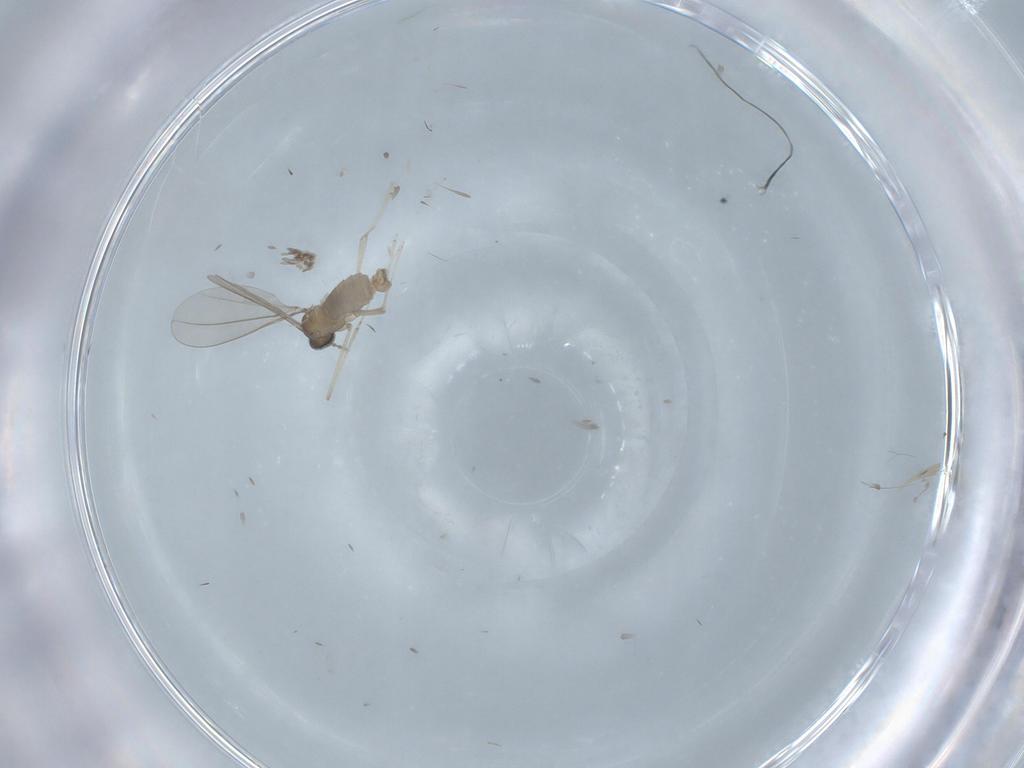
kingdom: Animalia
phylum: Arthropoda
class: Insecta
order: Diptera
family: Cecidomyiidae
